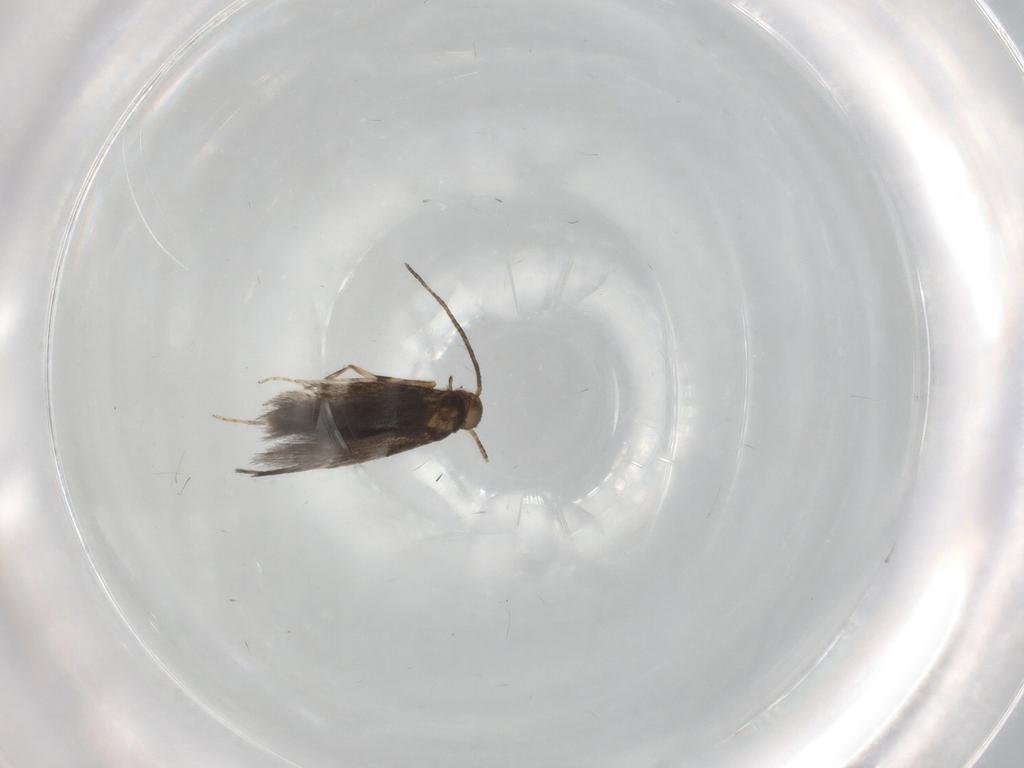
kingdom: Animalia
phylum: Arthropoda
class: Insecta
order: Lepidoptera
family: Gracillariidae
